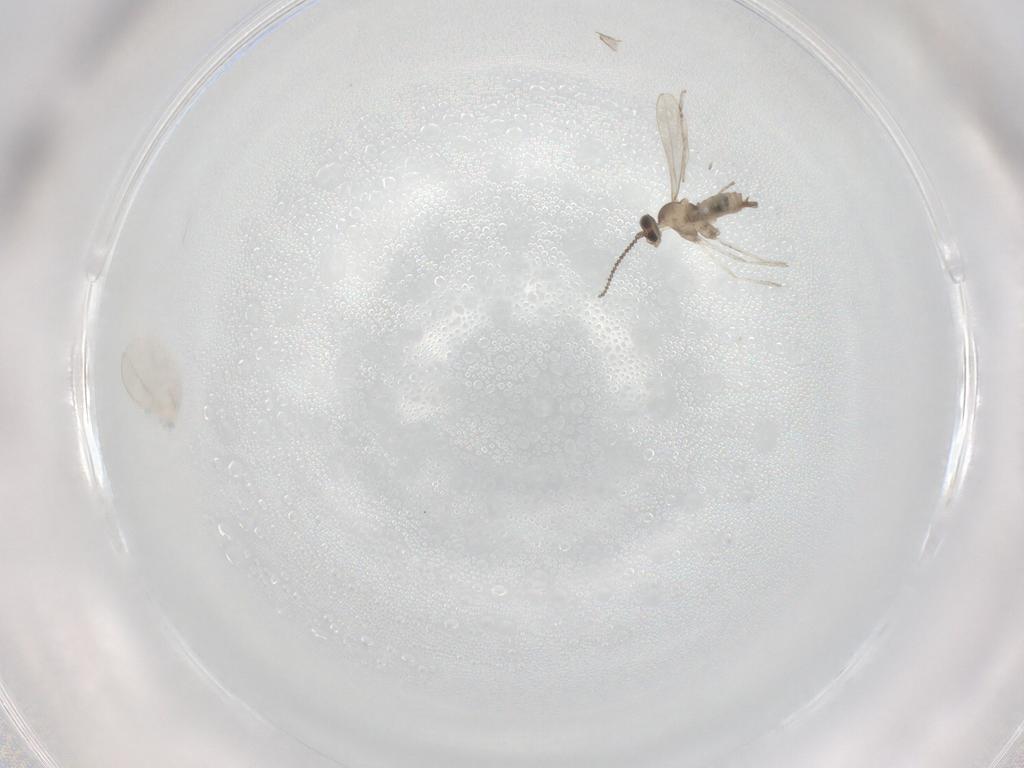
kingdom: Animalia
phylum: Arthropoda
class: Insecta
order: Diptera
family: Cecidomyiidae
